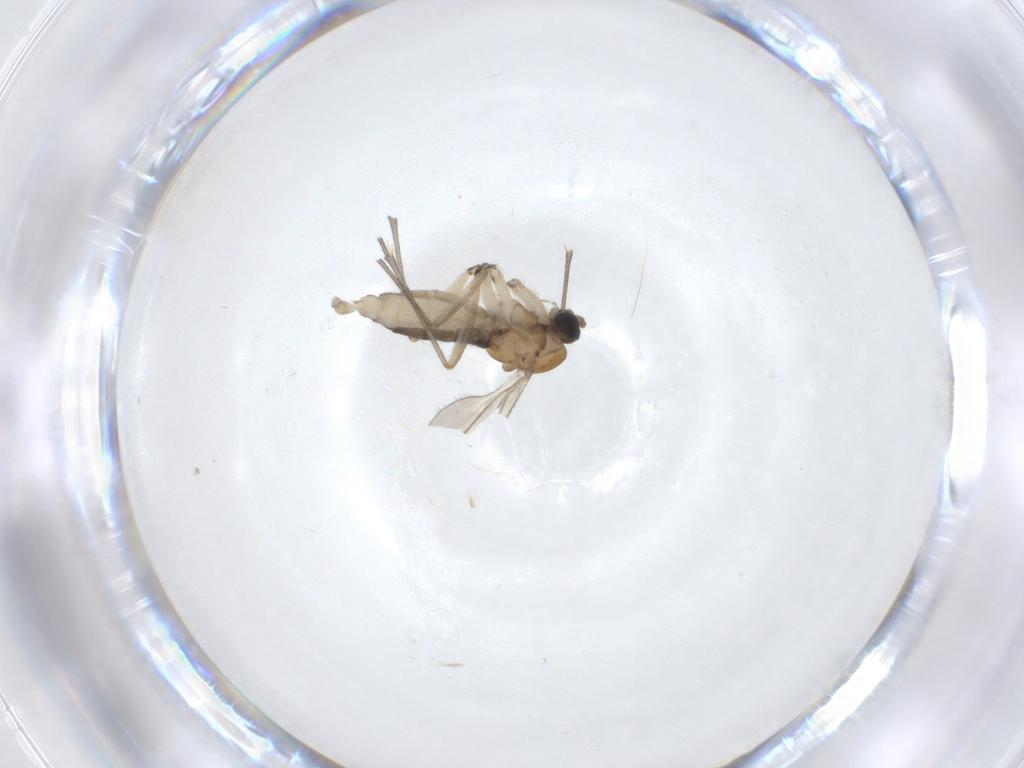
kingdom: Animalia
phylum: Arthropoda
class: Insecta
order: Diptera
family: Sciaridae
